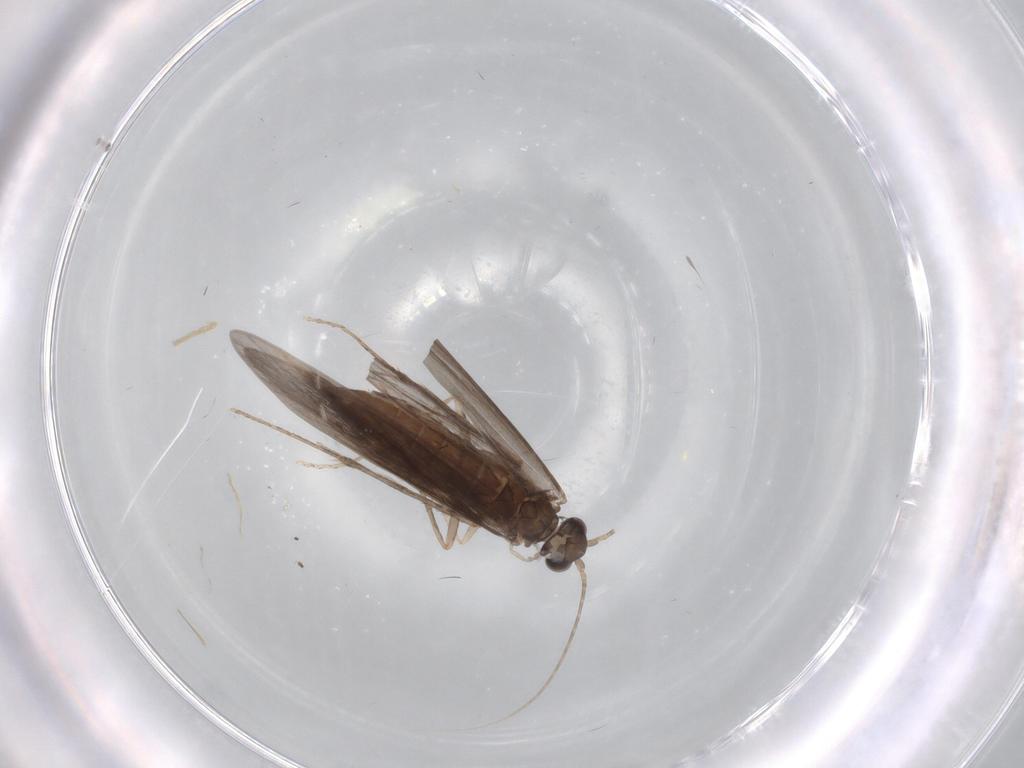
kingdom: Animalia
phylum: Arthropoda
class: Insecta
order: Trichoptera
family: Xiphocentronidae
